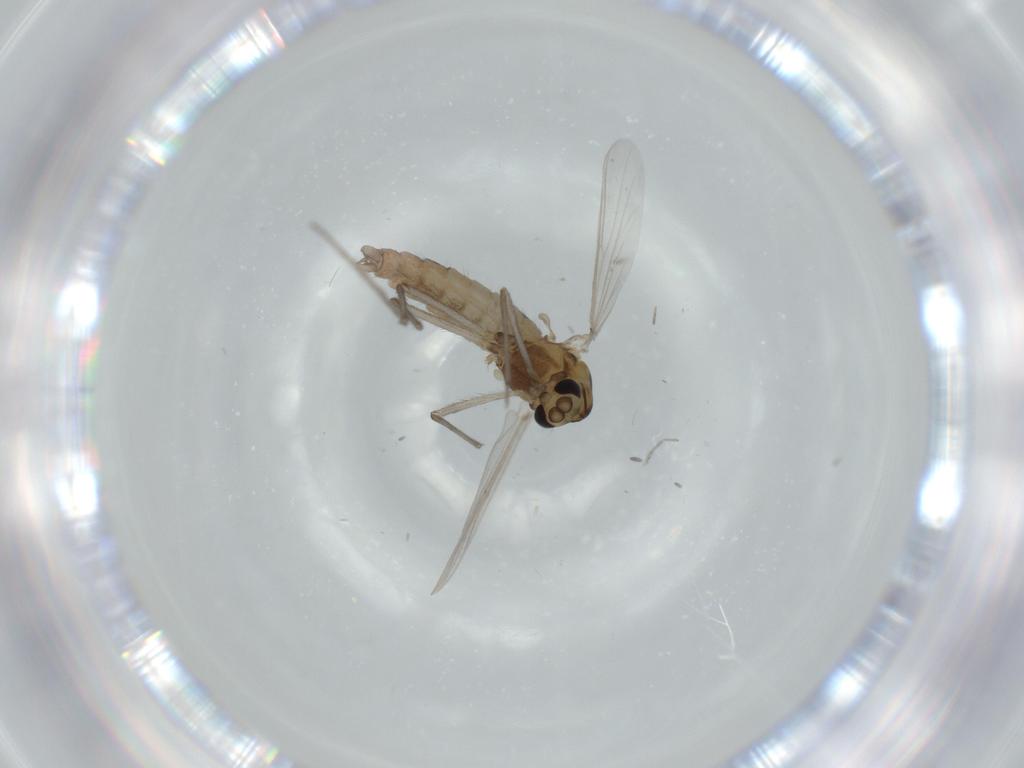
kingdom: Animalia
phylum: Arthropoda
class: Insecta
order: Diptera
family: Chironomidae
